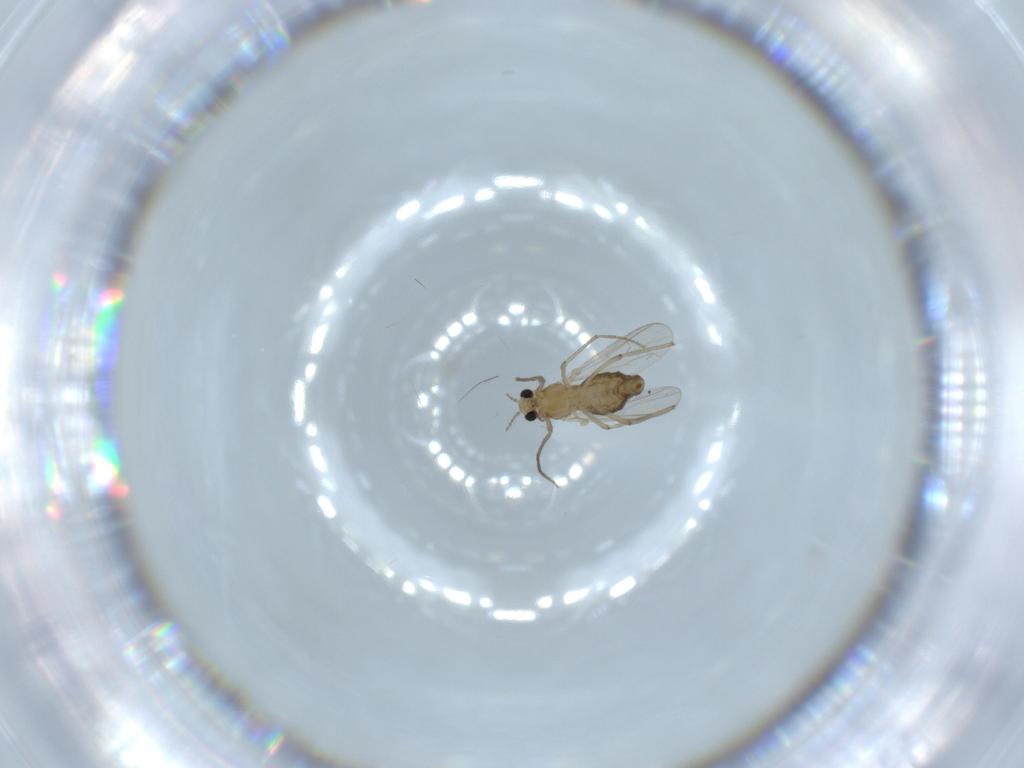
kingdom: Animalia
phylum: Arthropoda
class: Insecta
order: Diptera
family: Chironomidae
